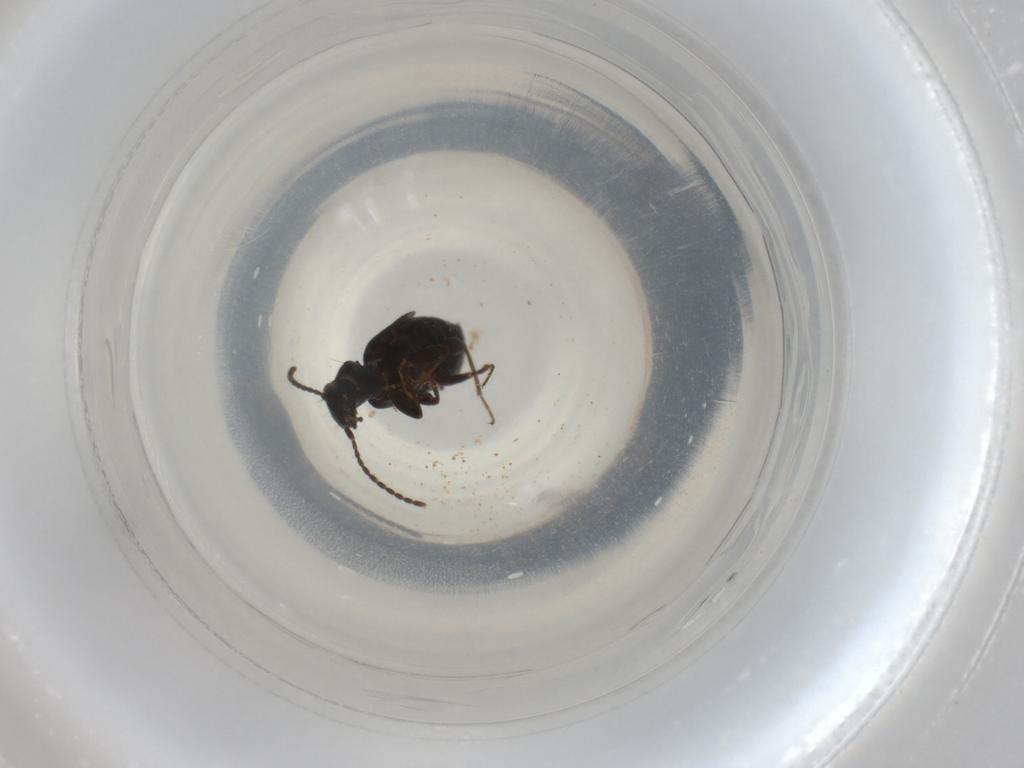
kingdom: Animalia
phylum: Arthropoda
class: Insecta
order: Coleoptera
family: Carabidae
